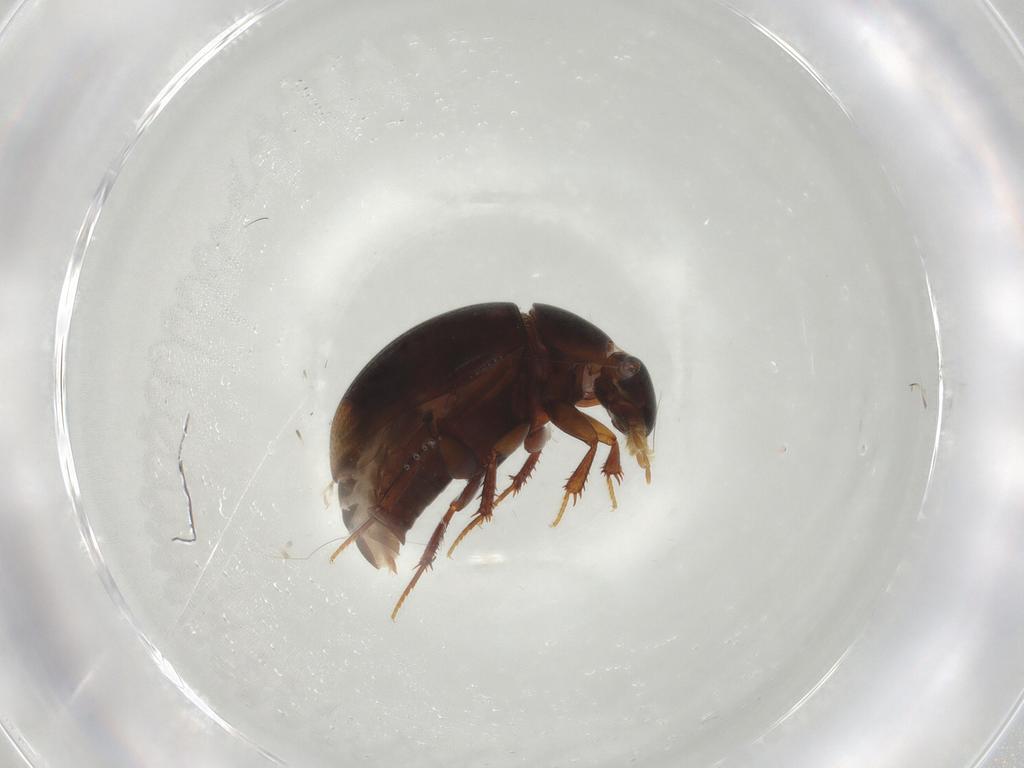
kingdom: Animalia
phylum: Arthropoda
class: Insecta
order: Coleoptera
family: Hydrophilidae
